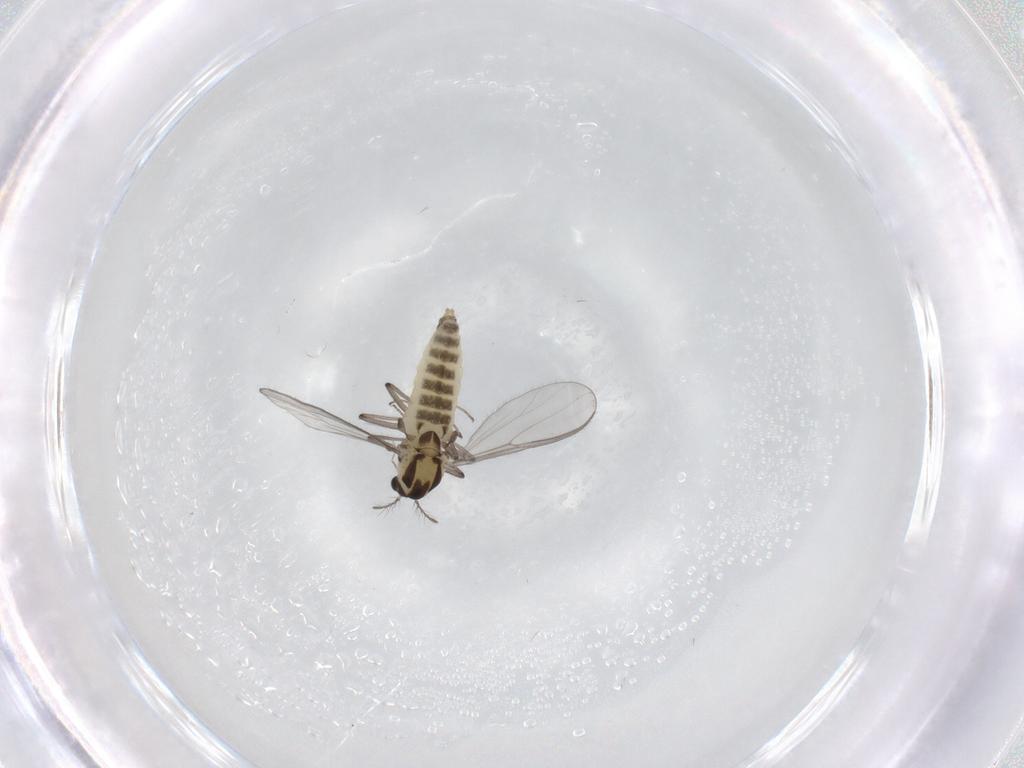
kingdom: Animalia
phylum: Arthropoda
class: Insecta
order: Diptera
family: Chironomidae
